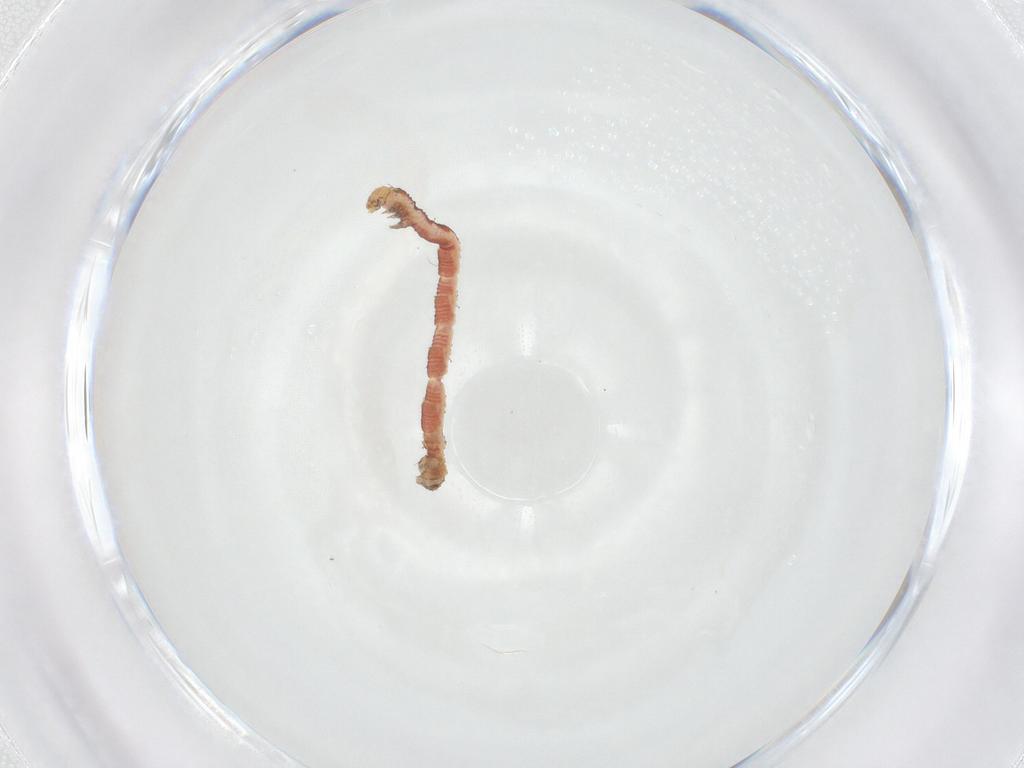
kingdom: Animalia
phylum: Arthropoda
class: Insecta
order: Lepidoptera
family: Geometridae
